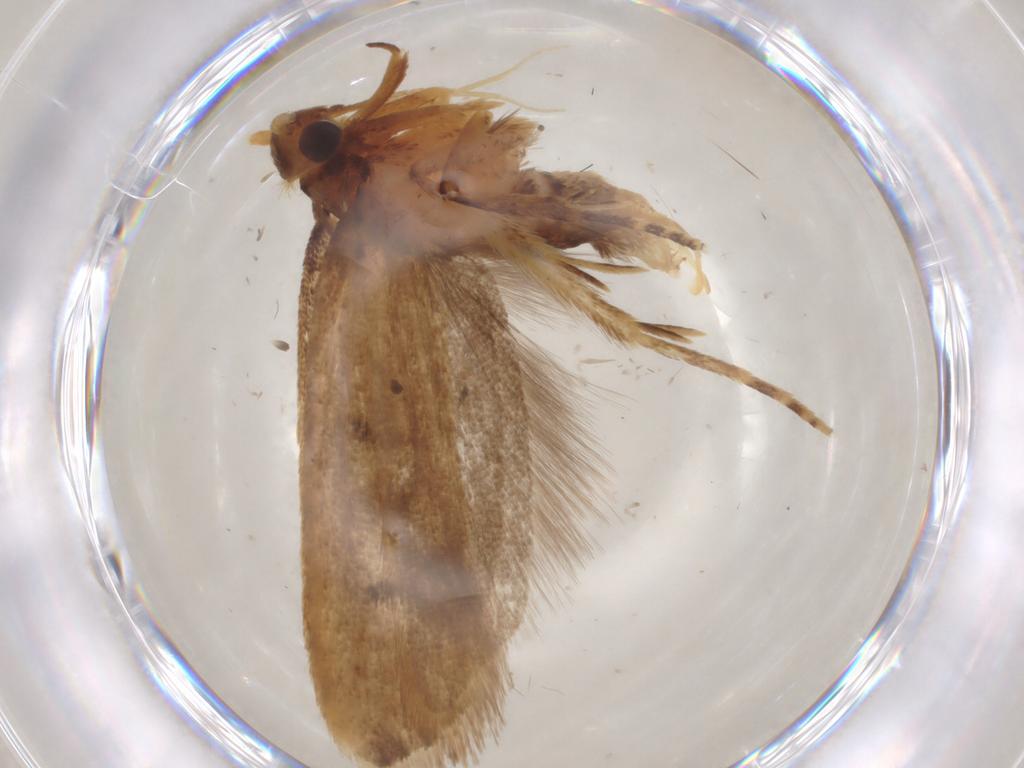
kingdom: Animalia
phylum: Arthropoda
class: Insecta
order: Lepidoptera
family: Lecithoceridae
